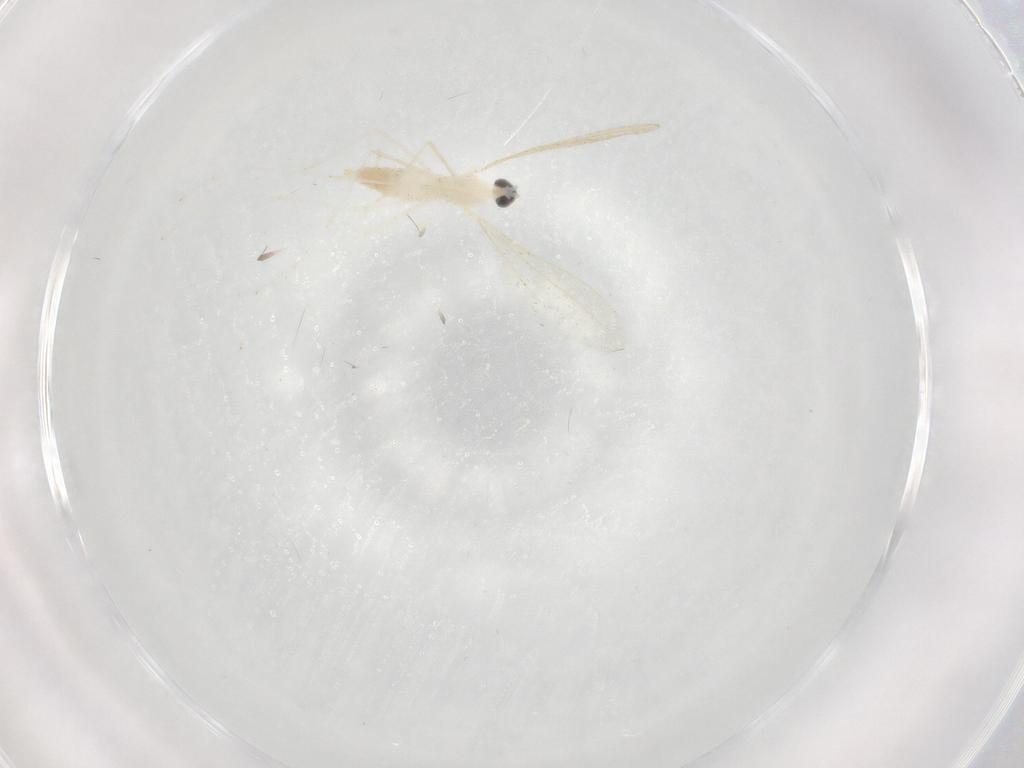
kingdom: Animalia
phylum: Arthropoda
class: Insecta
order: Diptera
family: Cecidomyiidae
